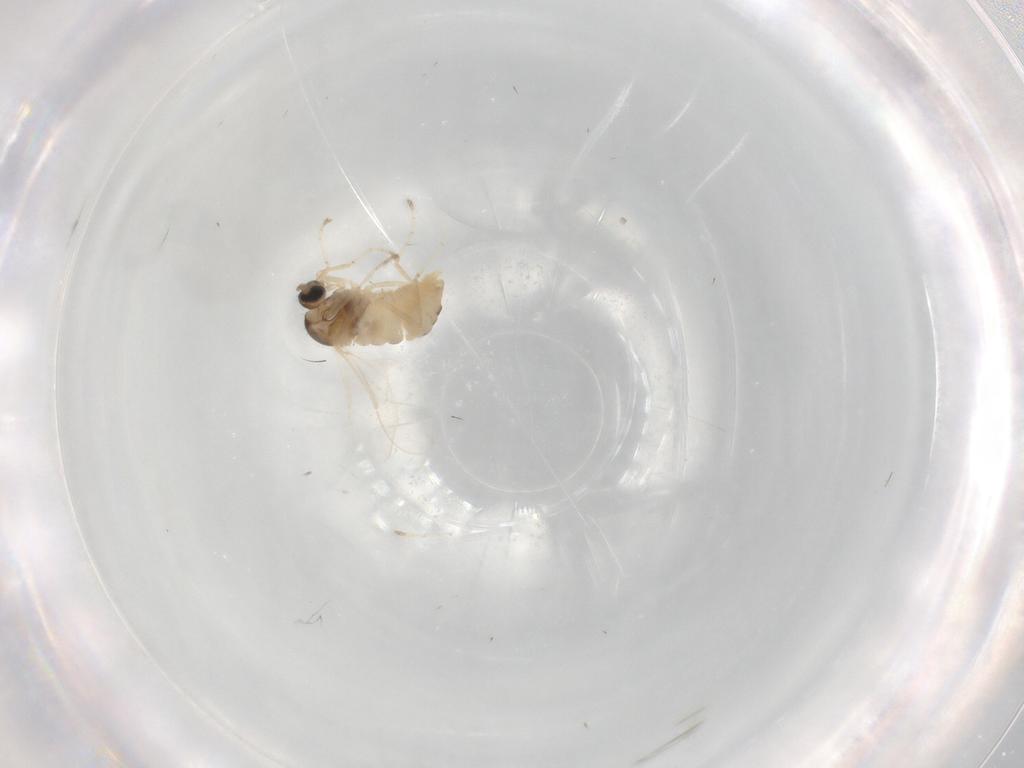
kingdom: Animalia
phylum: Arthropoda
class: Insecta
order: Diptera
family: Cecidomyiidae
